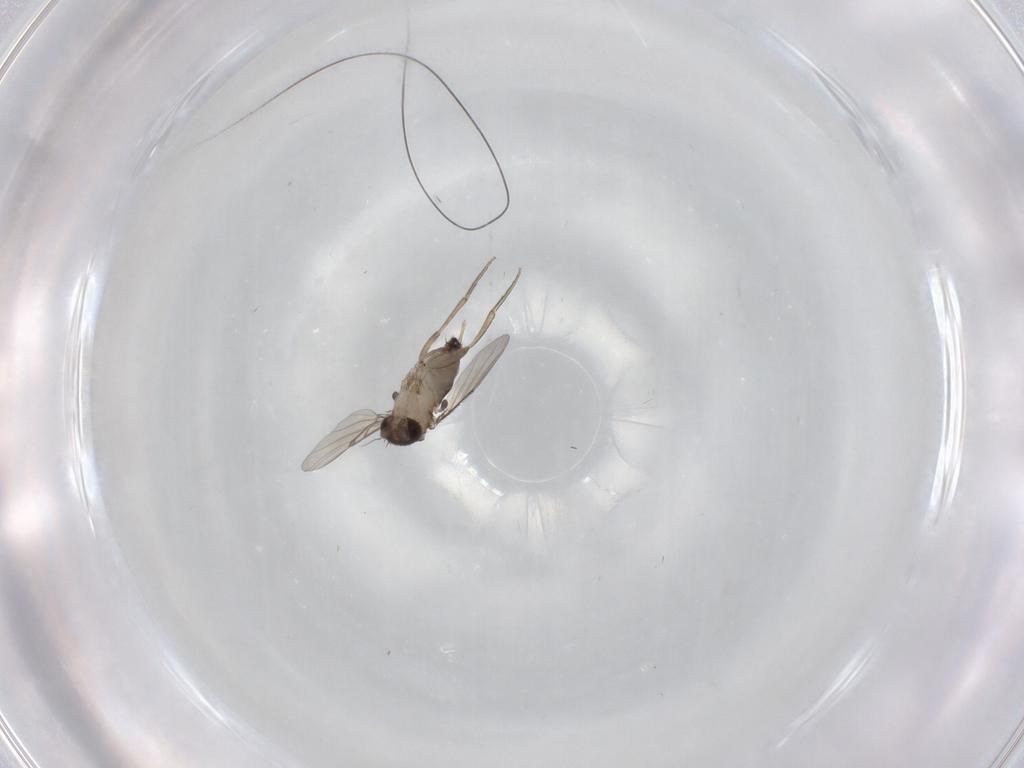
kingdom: Animalia
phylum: Arthropoda
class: Insecta
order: Diptera
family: Phoridae
